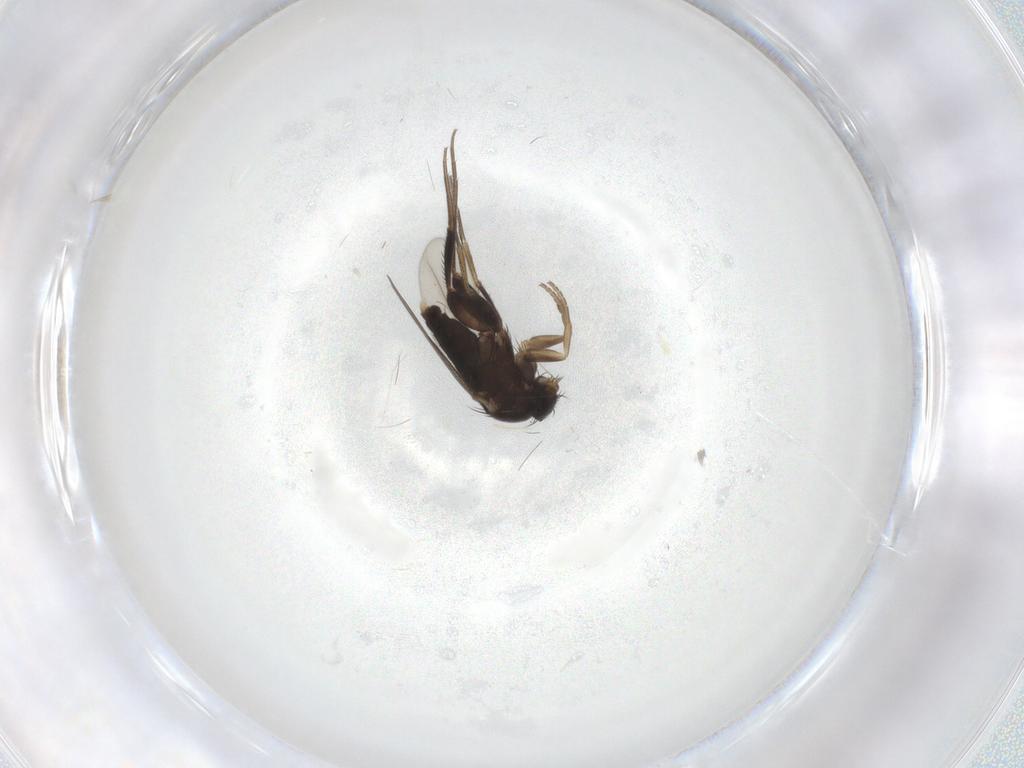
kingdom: Animalia
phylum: Arthropoda
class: Insecta
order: Diptera
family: Phoridae
